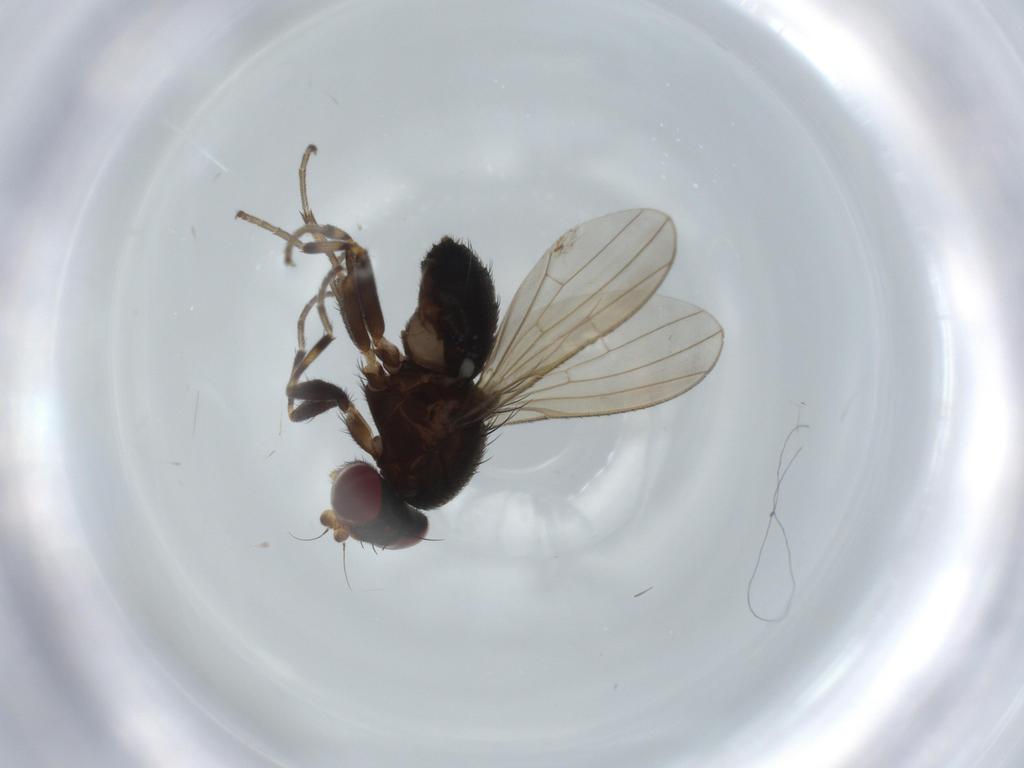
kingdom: Animalia
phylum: Arthropoda
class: Insecta
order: Diptera
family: Heleomyzidae
